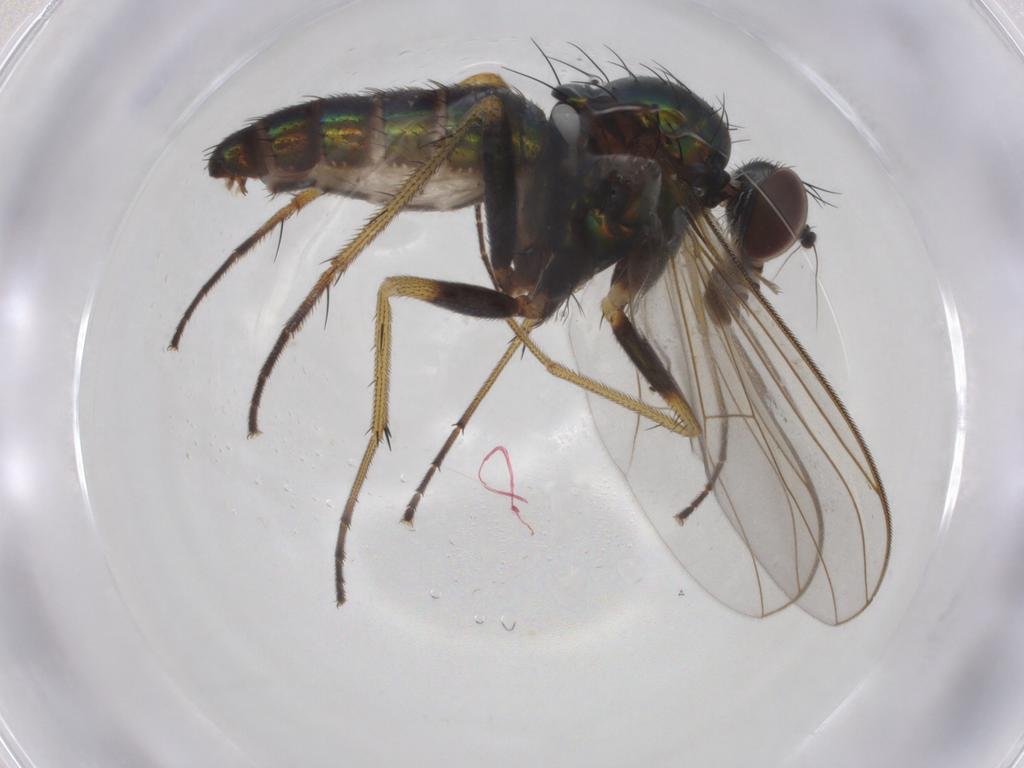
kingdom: Animalia
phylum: Arthropoda
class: Insecta
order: Diptera
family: Dolichopodidae
